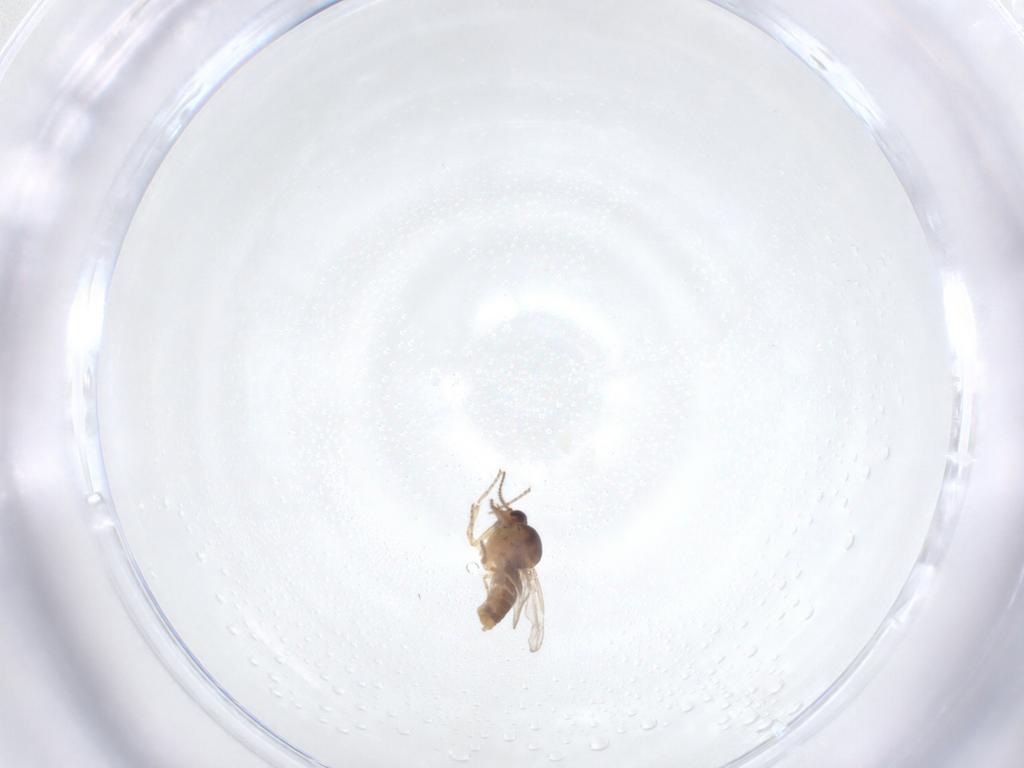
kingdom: Animalia
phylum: Arthropoda
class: Insecta
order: Diptera
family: Ceratopogonidae
